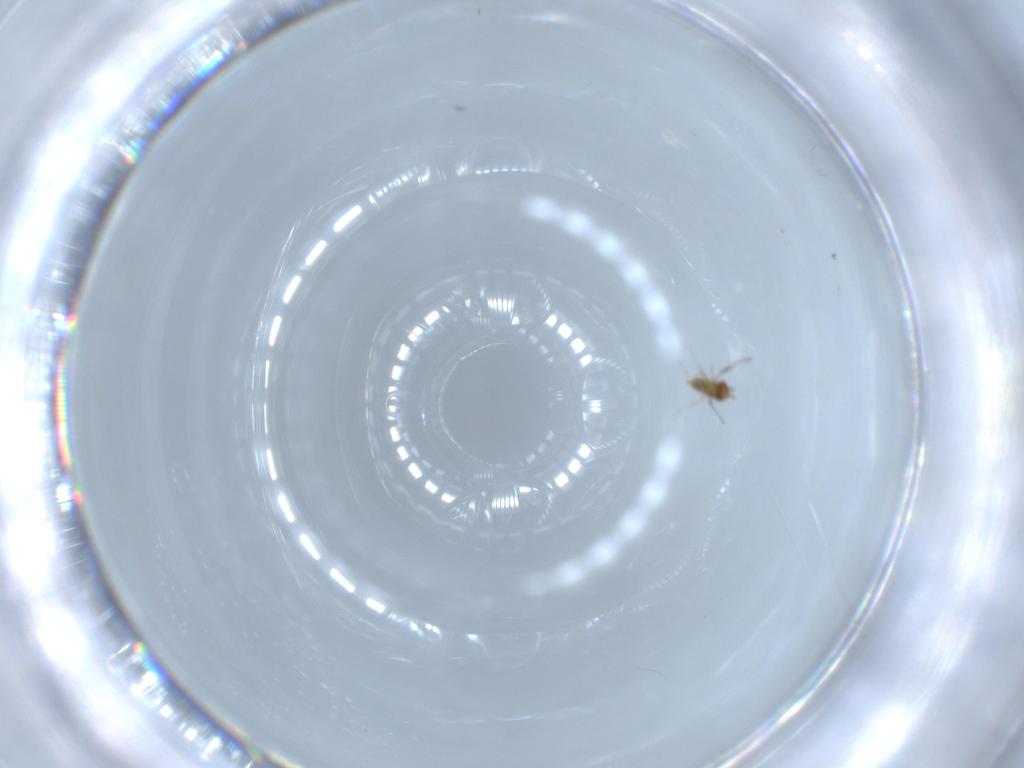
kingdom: Animalia
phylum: Arthropoda
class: Insecta
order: Hymenoptera
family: Trichogrammatidae
